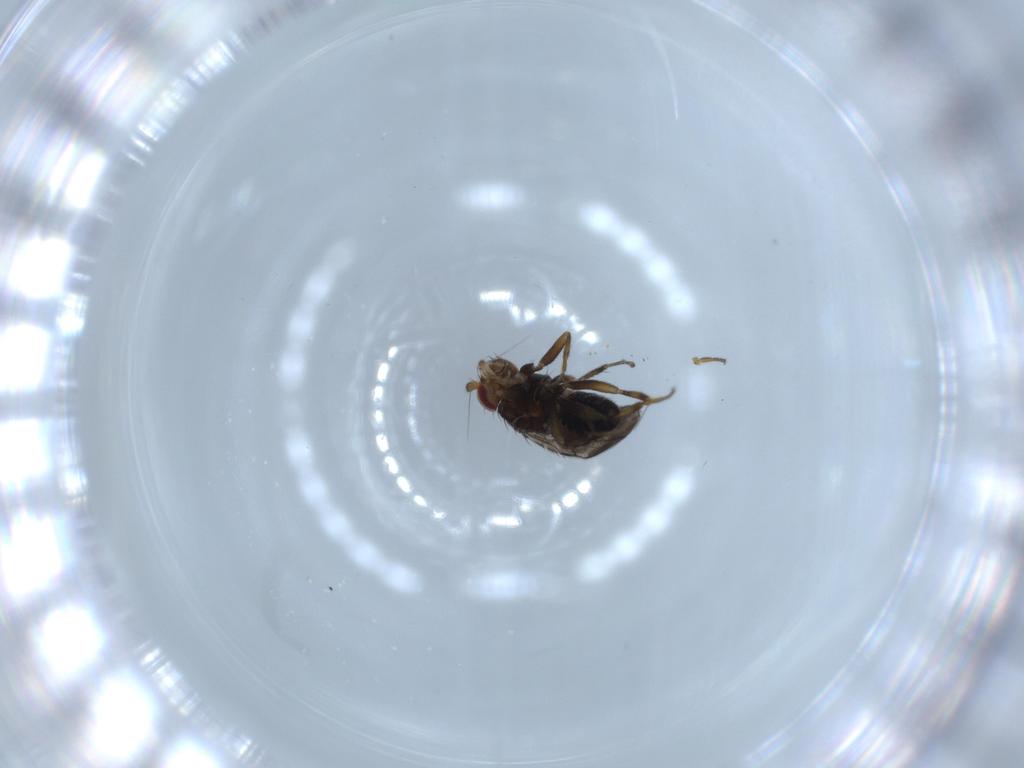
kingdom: Animalia
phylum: Arthropoda
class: Insecta
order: Diptera
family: Sphaeroceridae
